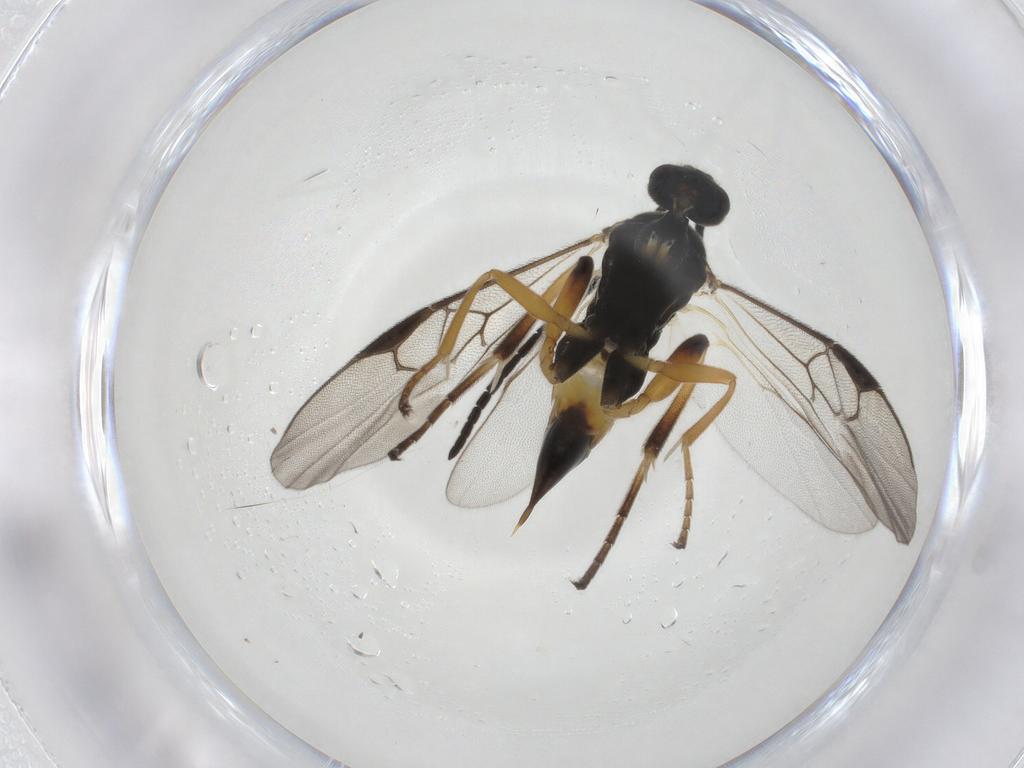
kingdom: Animalia
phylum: Arthropoda
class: Insecta
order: Hymenoptera
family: Braconidae
